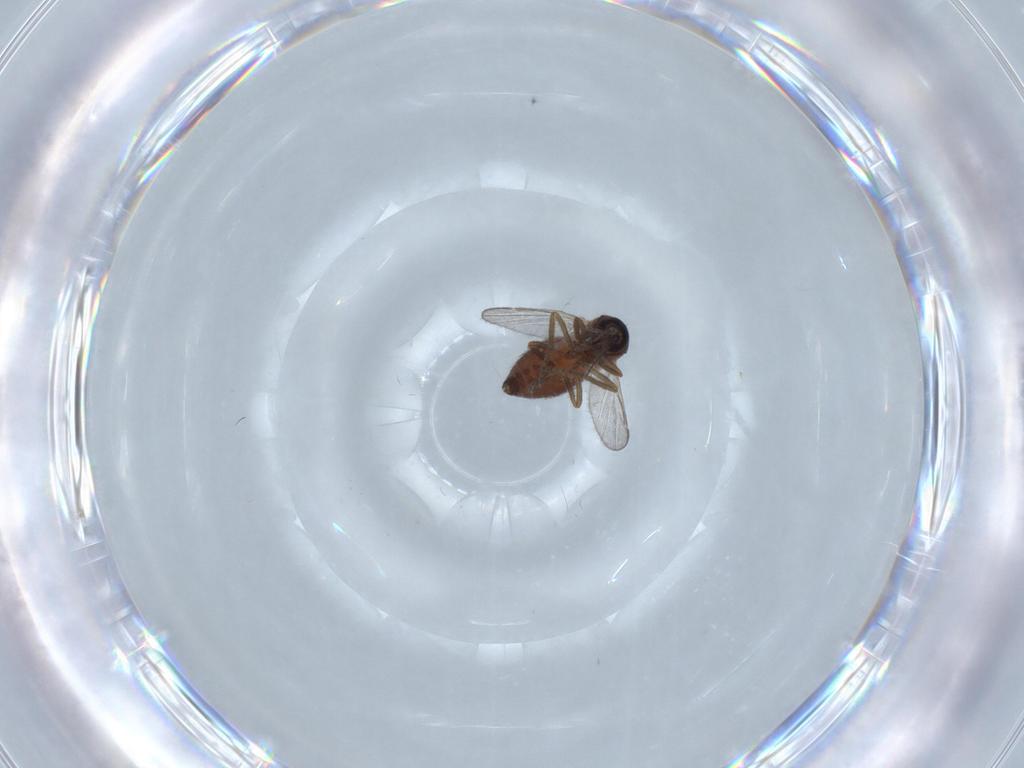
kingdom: Animalia
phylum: Arthropoda
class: Insecta
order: Diptera
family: Ceratopogonidae
